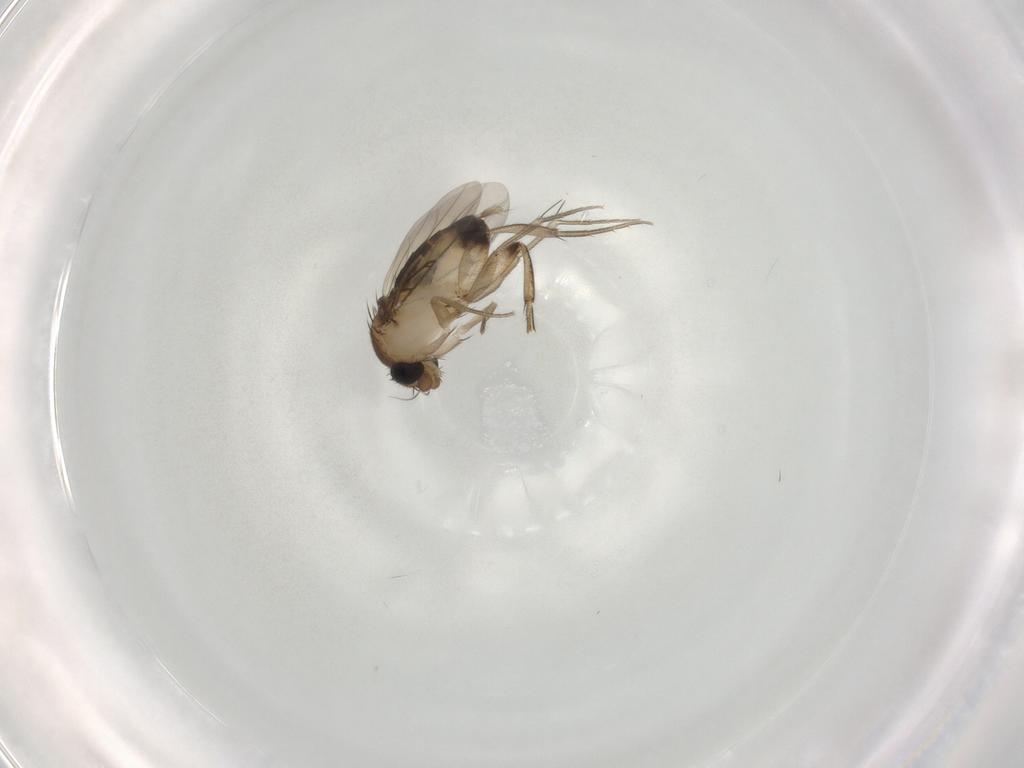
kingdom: Animalia
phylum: Arthropoda
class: Insecta
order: Diptera
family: Phoridae
